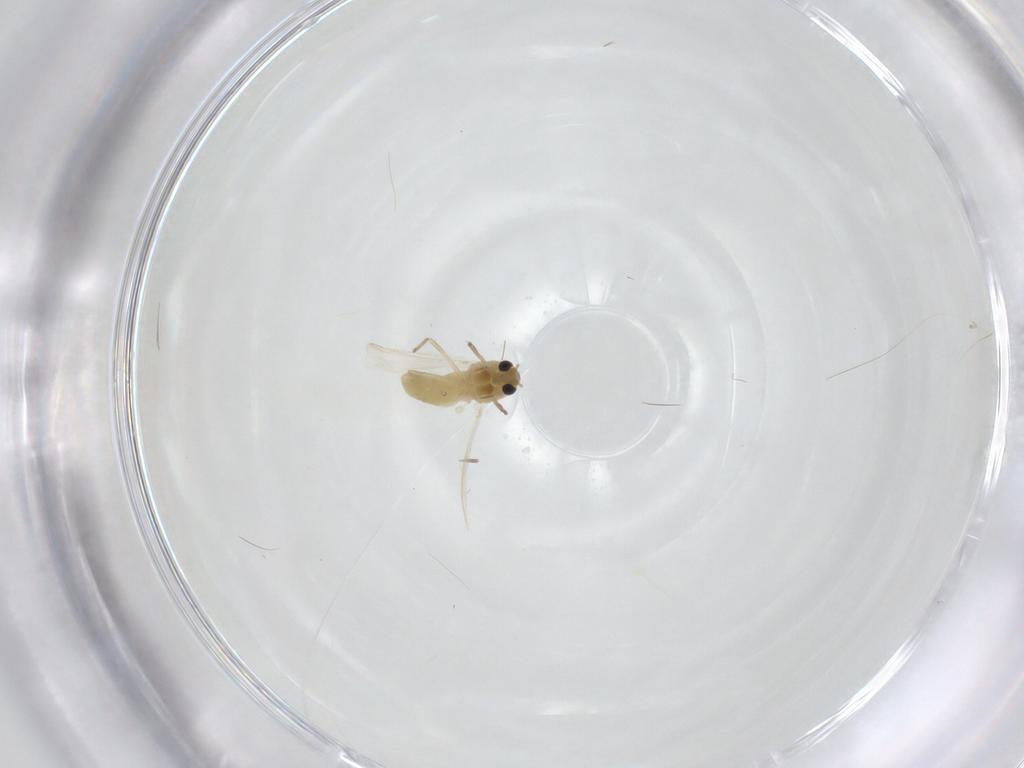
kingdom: Animalia
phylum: Arthropoda
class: Insecta
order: Diptera
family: Chironomidae
